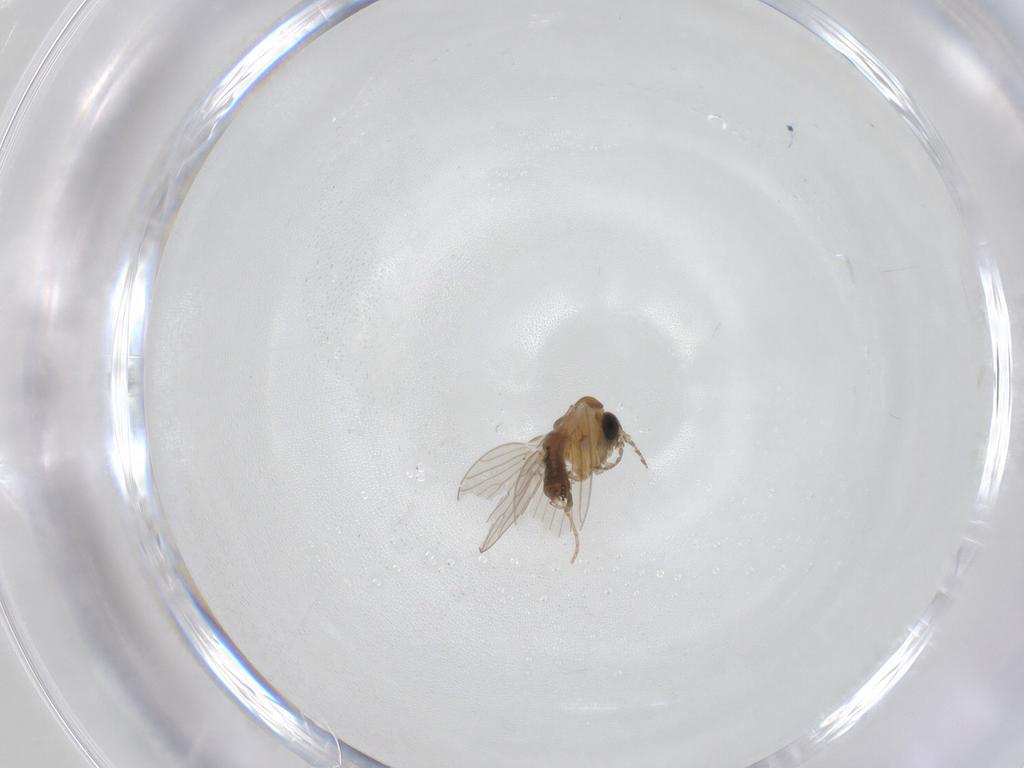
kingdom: Animalia
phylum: Arthropoda
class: Insecta
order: Diptera
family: Psychodidae
